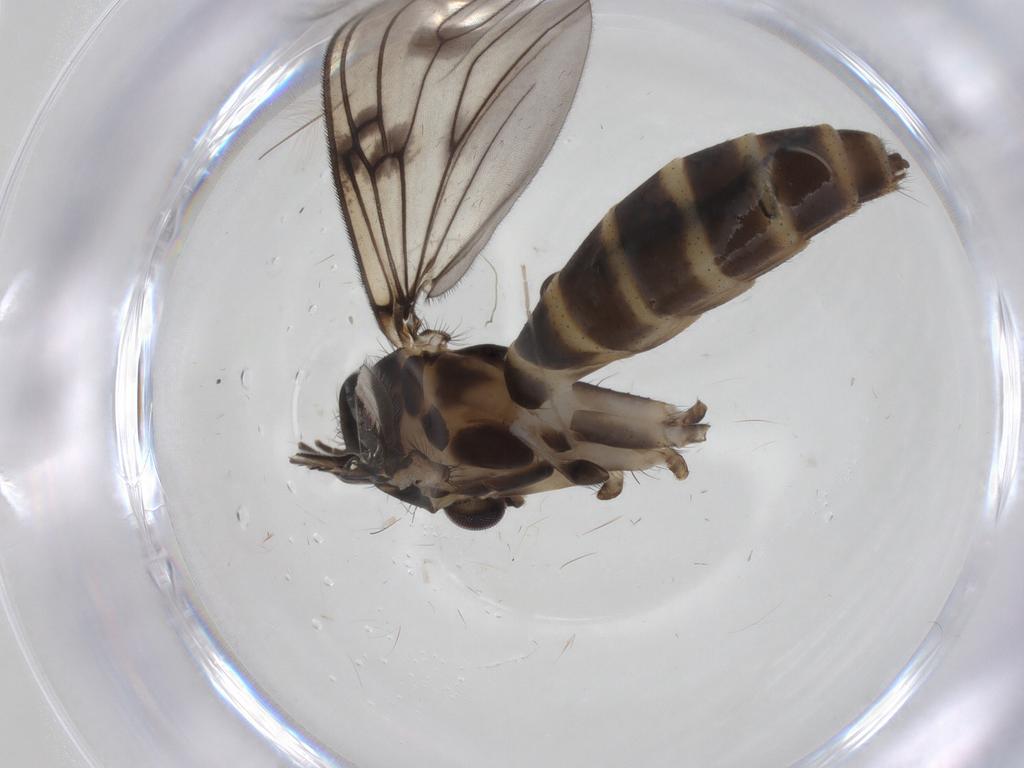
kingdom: Animalia
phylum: Arthropoda
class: Insecta
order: Diptera
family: Mycetophilidae
